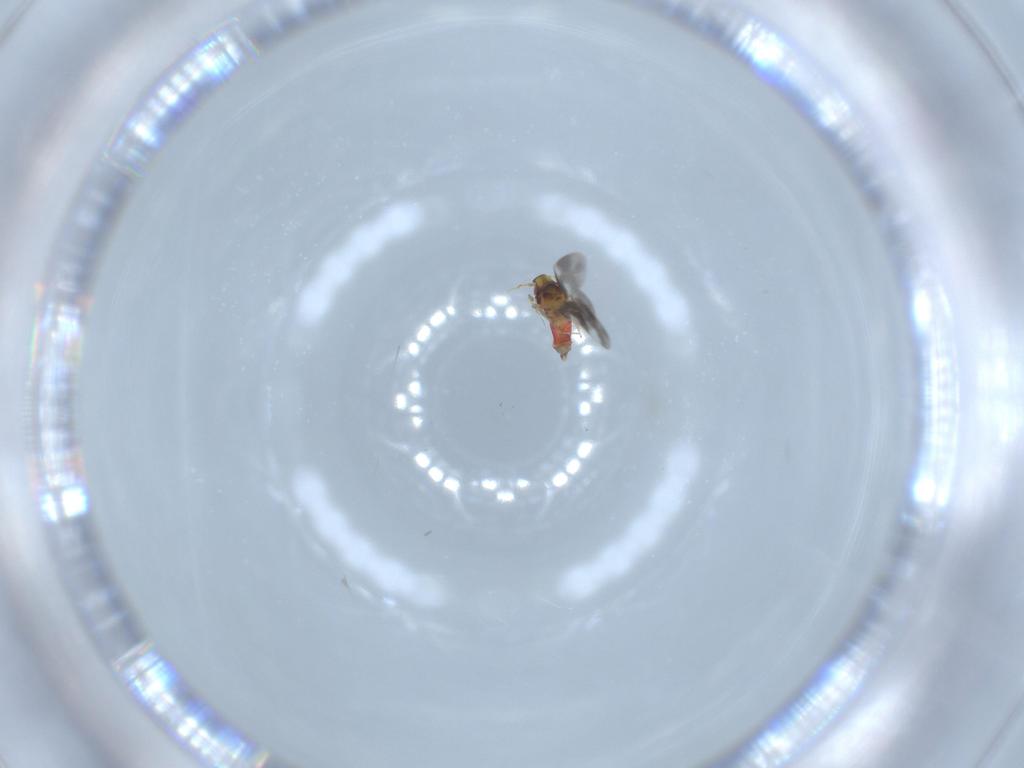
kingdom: Animalia
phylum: Arthropoda
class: Insecta
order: Hemiptera
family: Aleyrodidae
